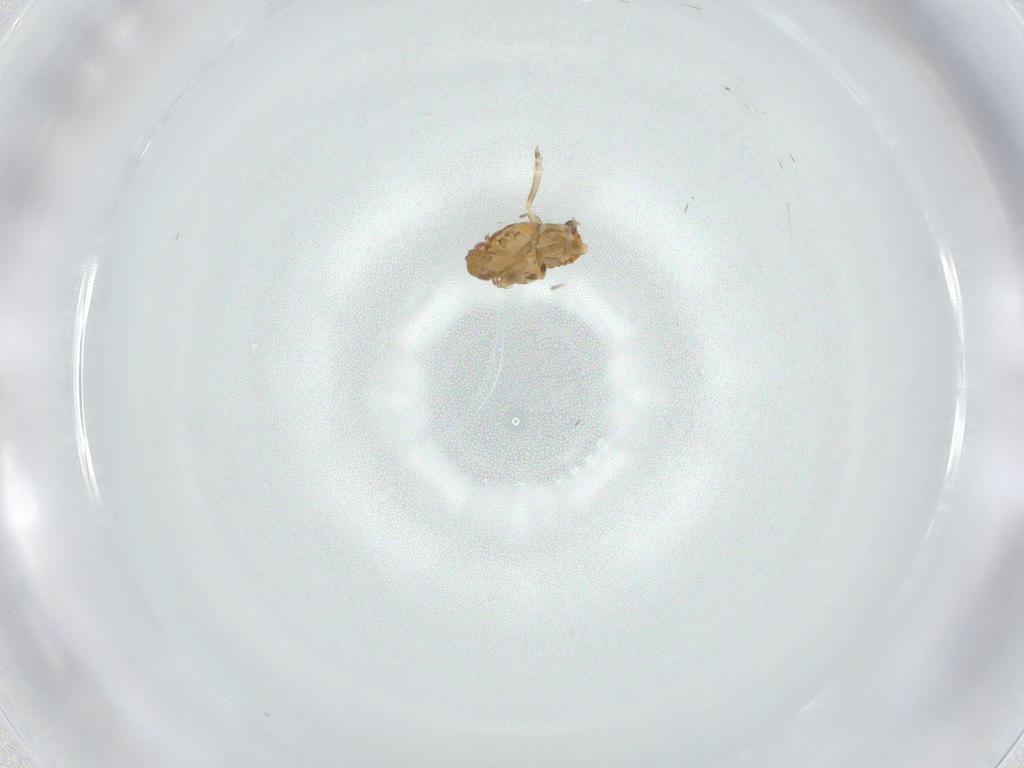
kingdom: Animalia
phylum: Arthropoda
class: Insecta
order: Hemiptera
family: Flatidae
